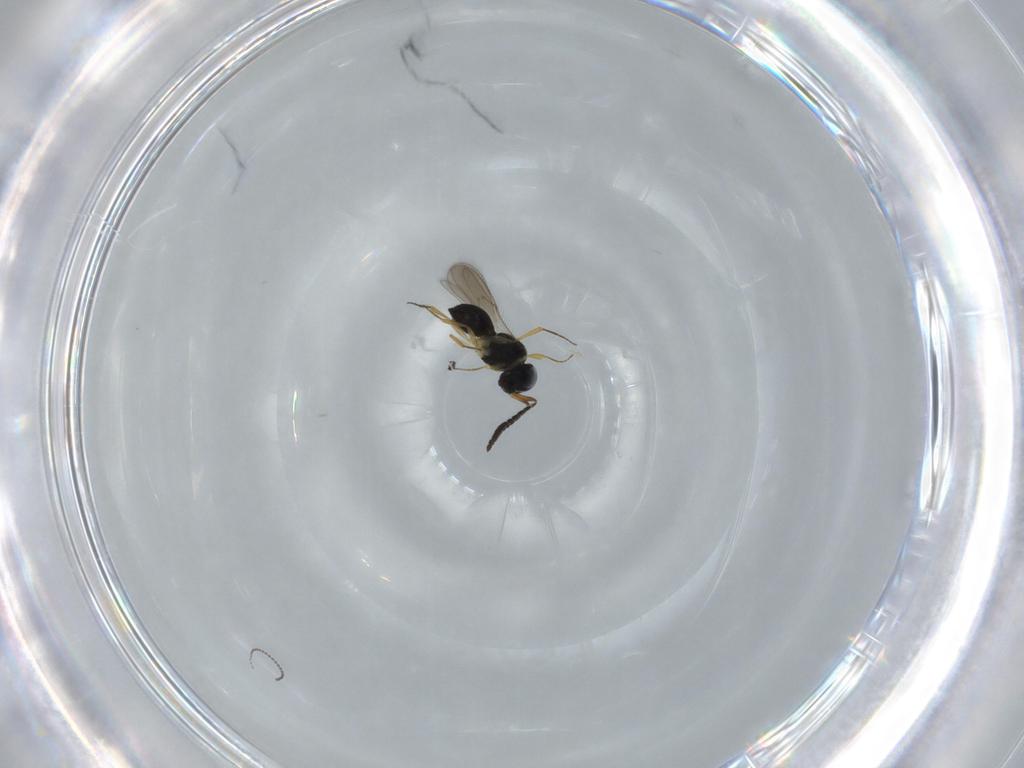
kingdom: Animalia
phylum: Arthropoda
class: Insecta
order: Hymenoptera
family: Scelionidae
